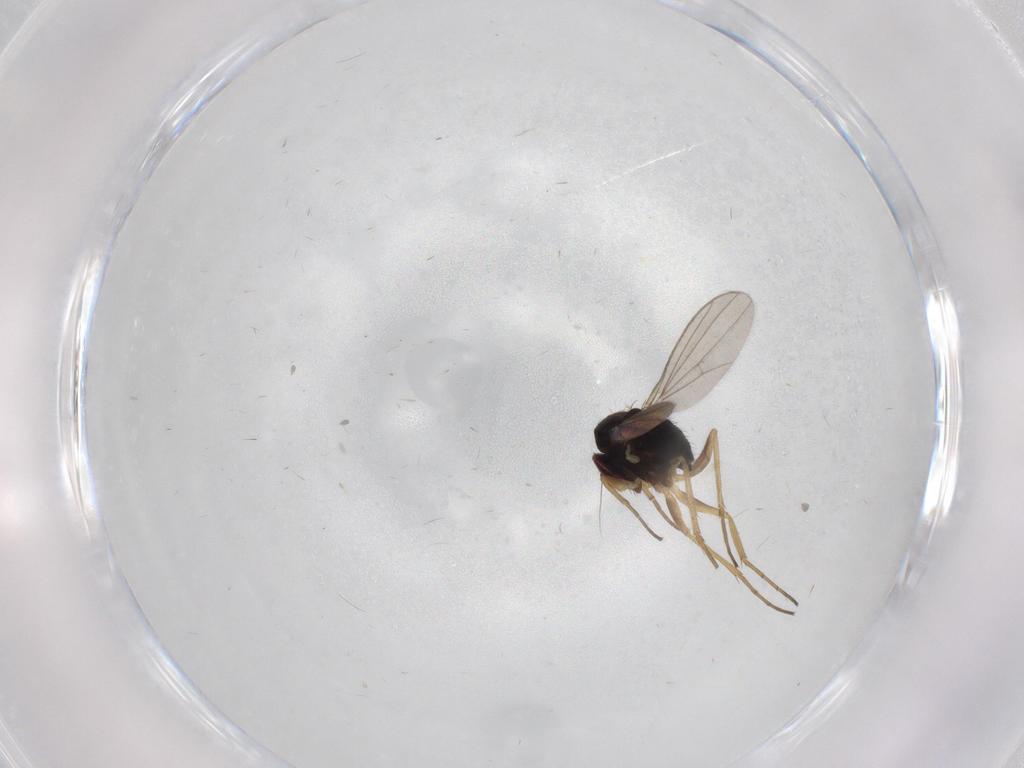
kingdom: Animalia
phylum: Arthropoda
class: Insecta
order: Diptera
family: Dolichopodidae
